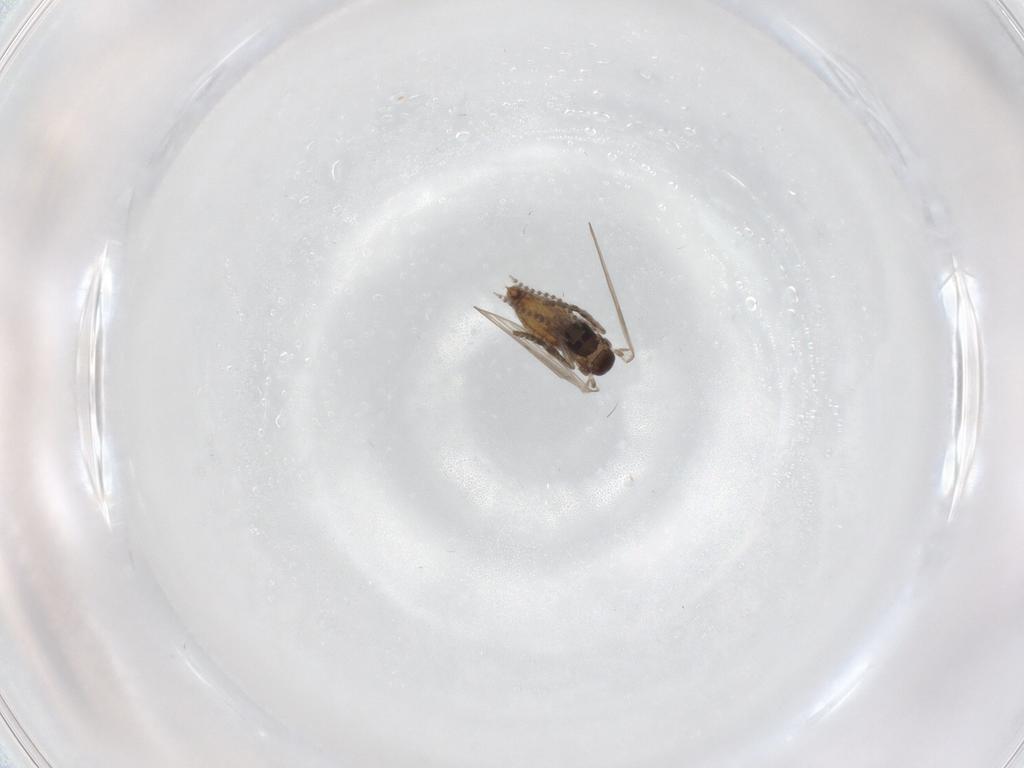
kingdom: Animalia
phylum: Arthropoda
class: Insecta
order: Diptera
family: Psychodidae
